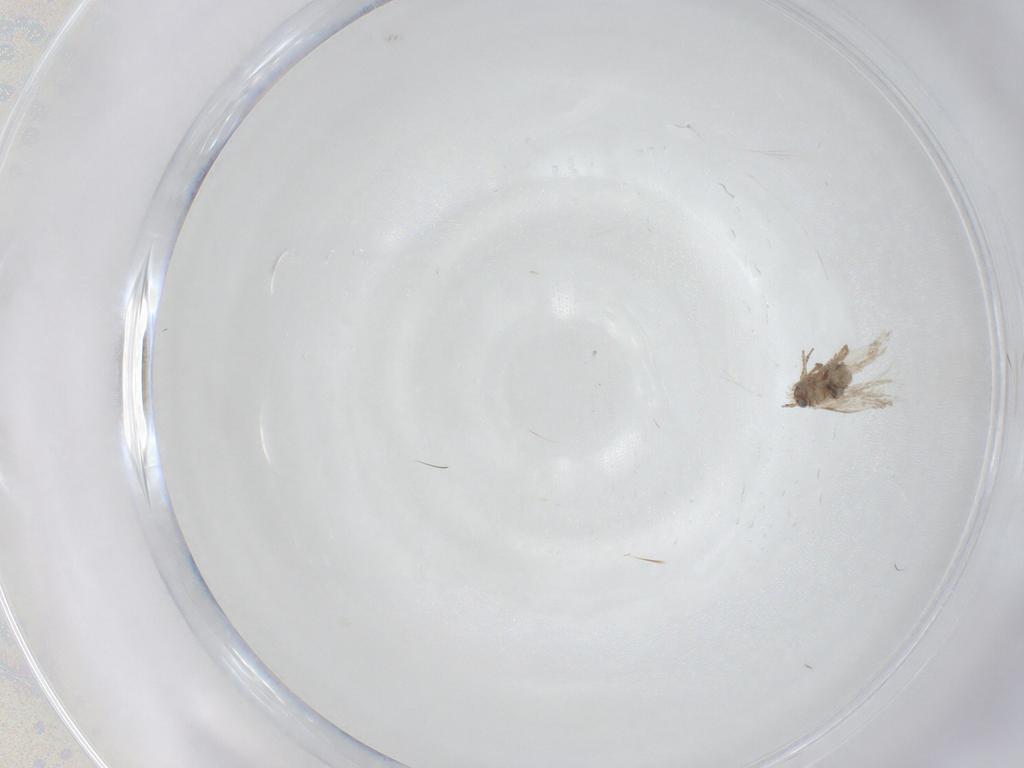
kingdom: Animalia
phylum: Arthropoda
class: Insecta
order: Lepidoptera
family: Nepticulidae
